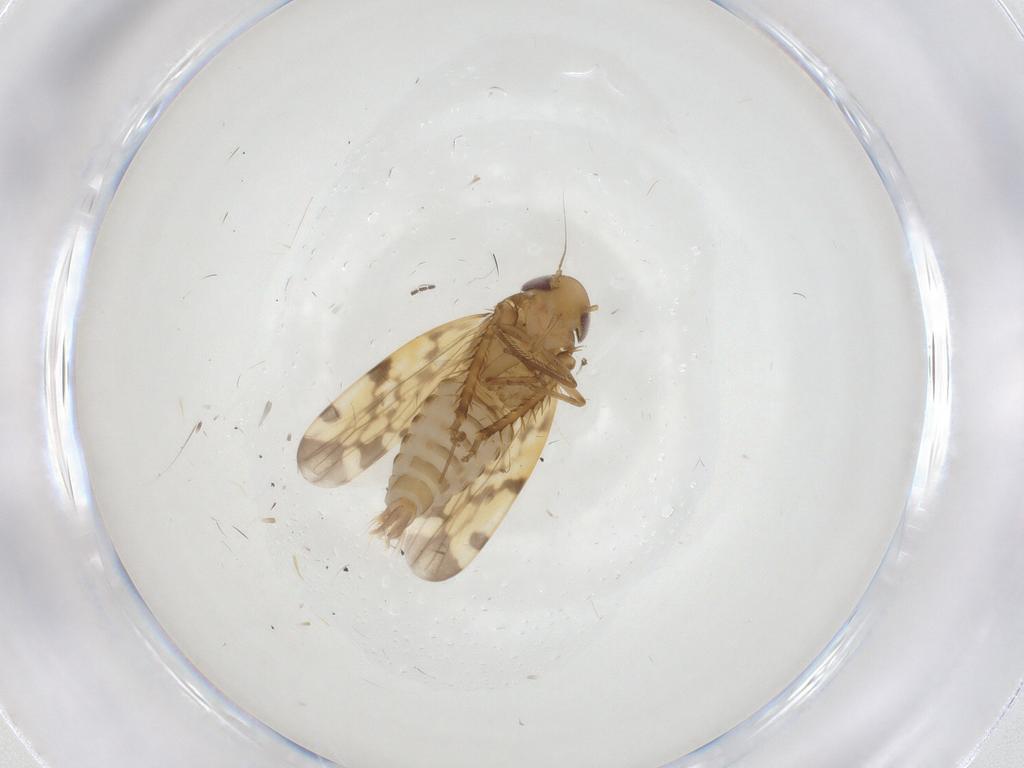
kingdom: Animalia
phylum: Arthropoda
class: Insecta
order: Hemiptera
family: Cicadellidae
